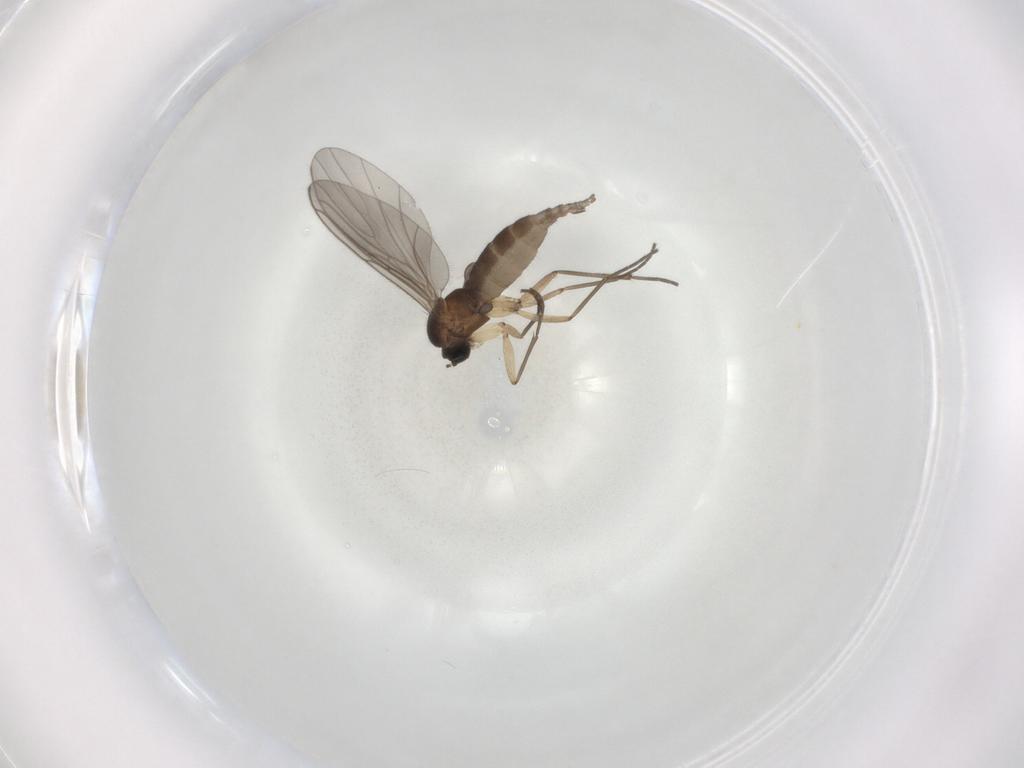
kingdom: Animalia
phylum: Arthropoda
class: Insecta
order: Diptera
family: Sciaridae
